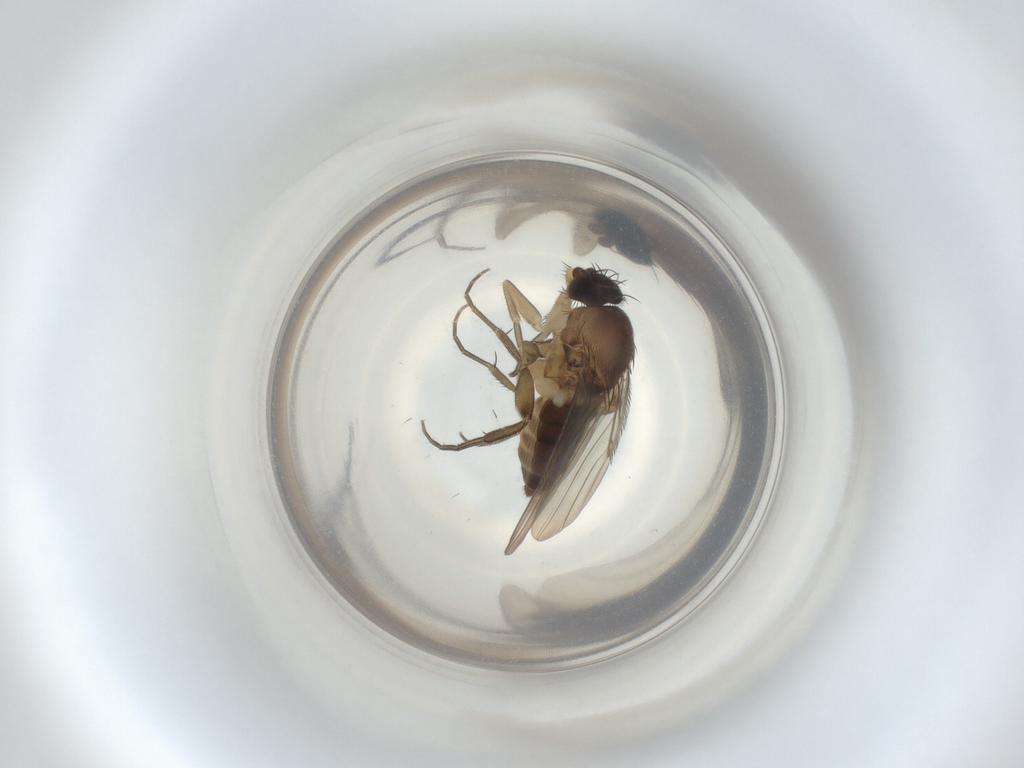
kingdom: Animalia
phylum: Arthropoda
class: Insecta
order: Diptera
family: Phoridae
